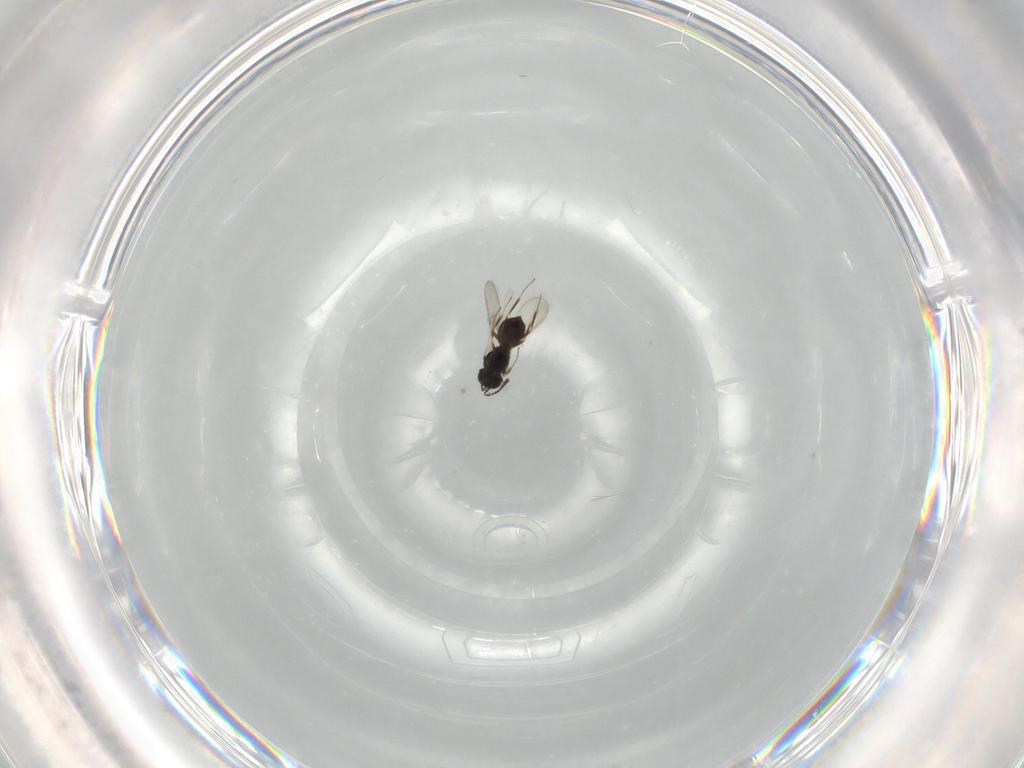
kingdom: Animalia
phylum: Arthropoda
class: Insecta
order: Hymenoptera
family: Scelionidae
